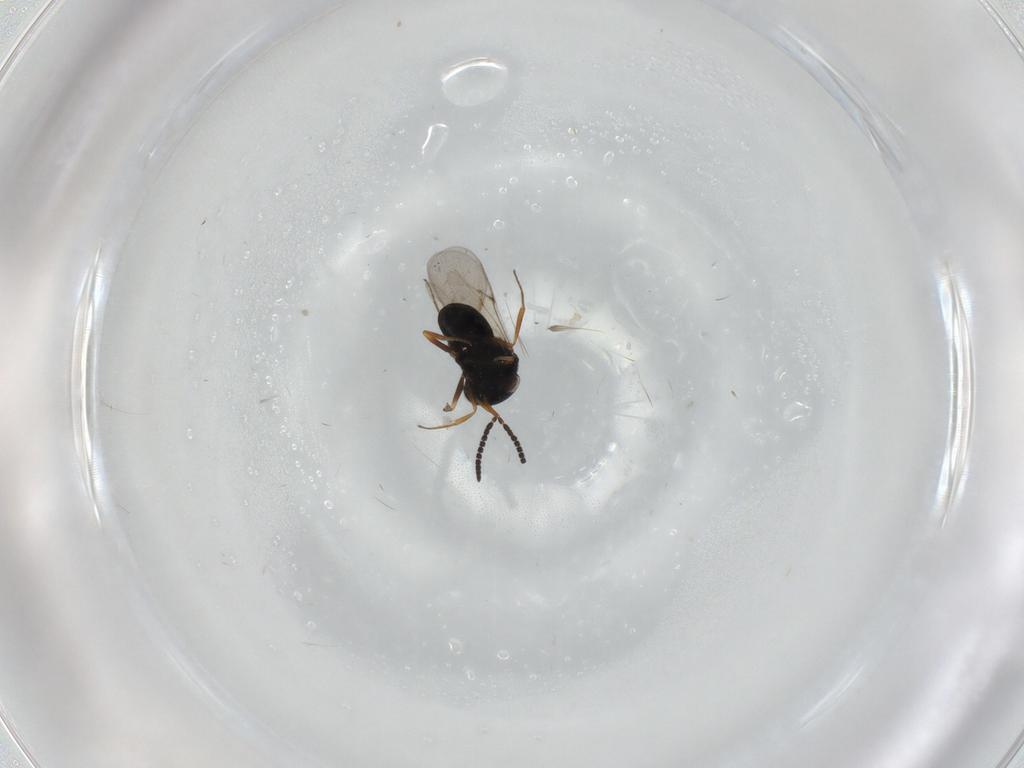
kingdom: Animalia
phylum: Arthropoda
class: Insecta
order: Hymenoptera
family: Scelionidae
